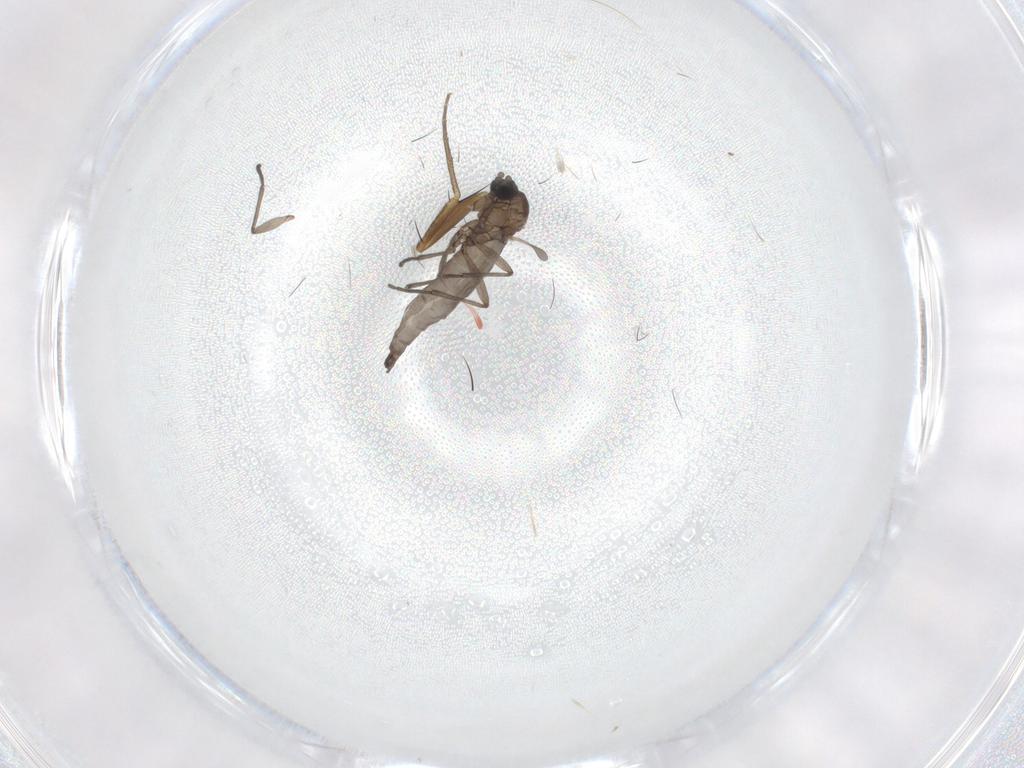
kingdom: Animalia
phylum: Arthropoda
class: Insecta
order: Diptera
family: Sciaridae
